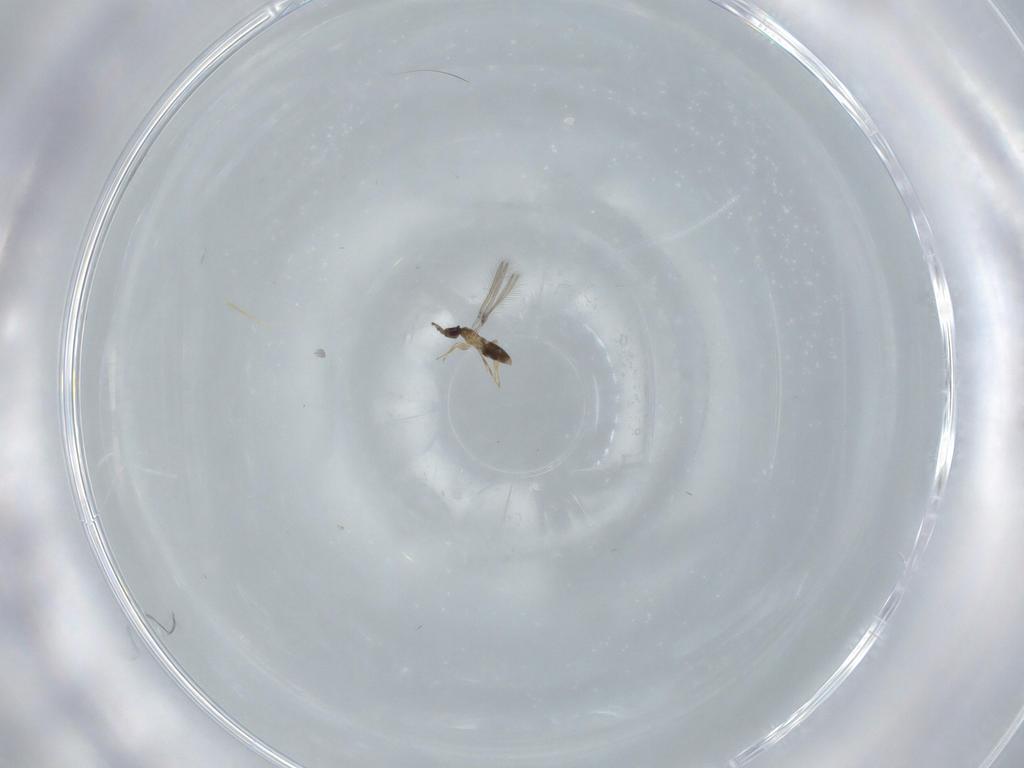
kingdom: Animalia
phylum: Arthropoda
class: Insecta
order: Hymenoptera
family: Mymaridae
